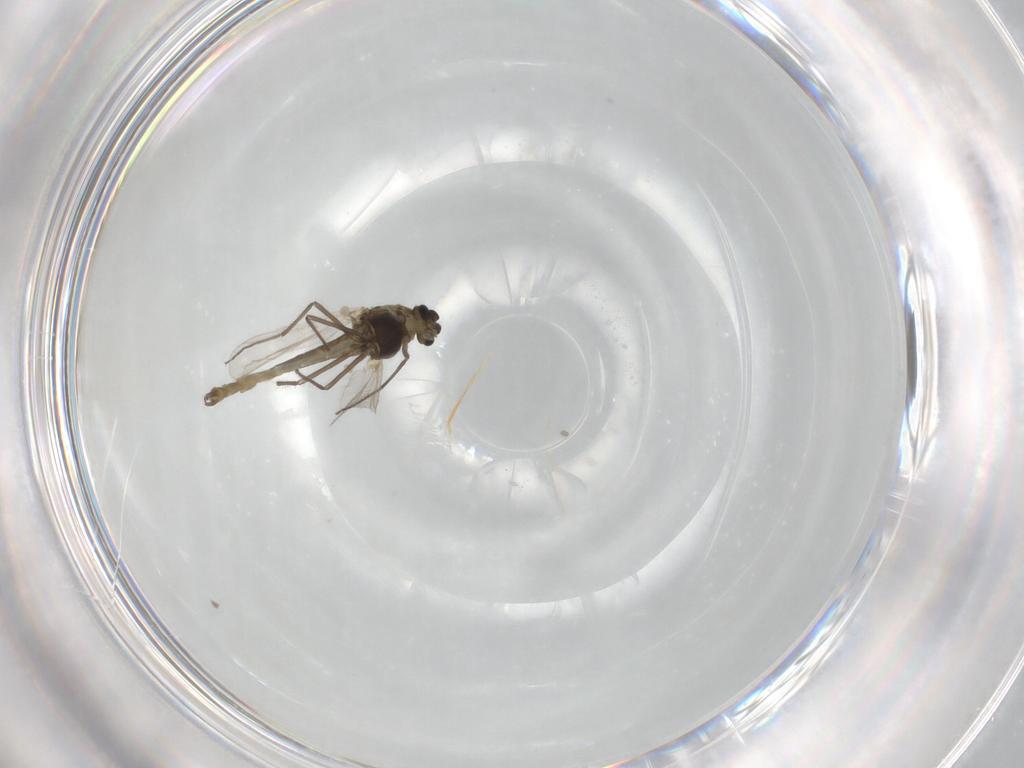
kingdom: Animalia
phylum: Arthropoda
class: Insecta
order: Diptera
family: Chironomidae
